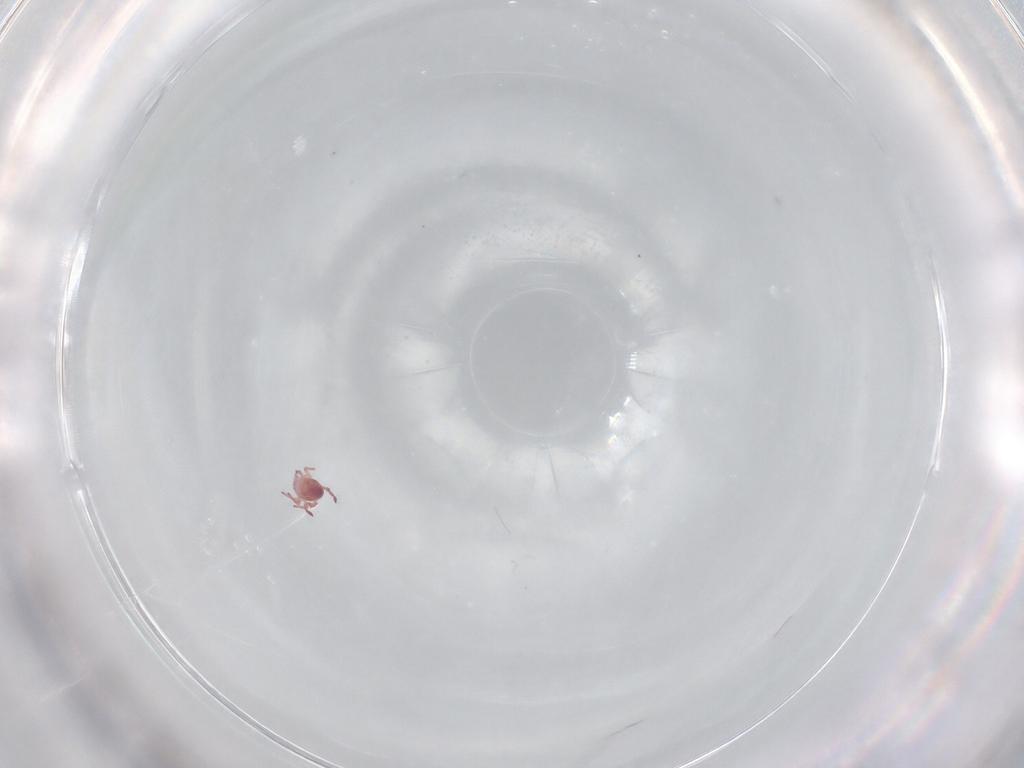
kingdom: Animalia
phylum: Arthropoda
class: Collembola
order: Symphypleona
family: Sminthurididae
